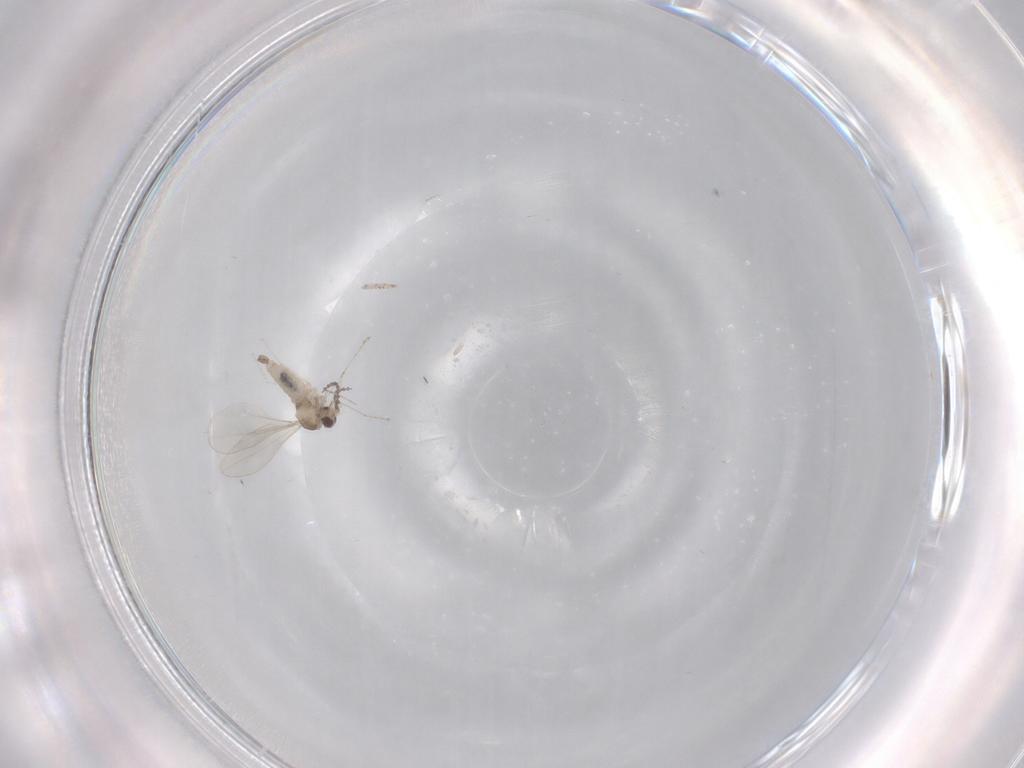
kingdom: Animalia
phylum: Arthropoda
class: Insecta
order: Diptera
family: Cecidomyiidae
